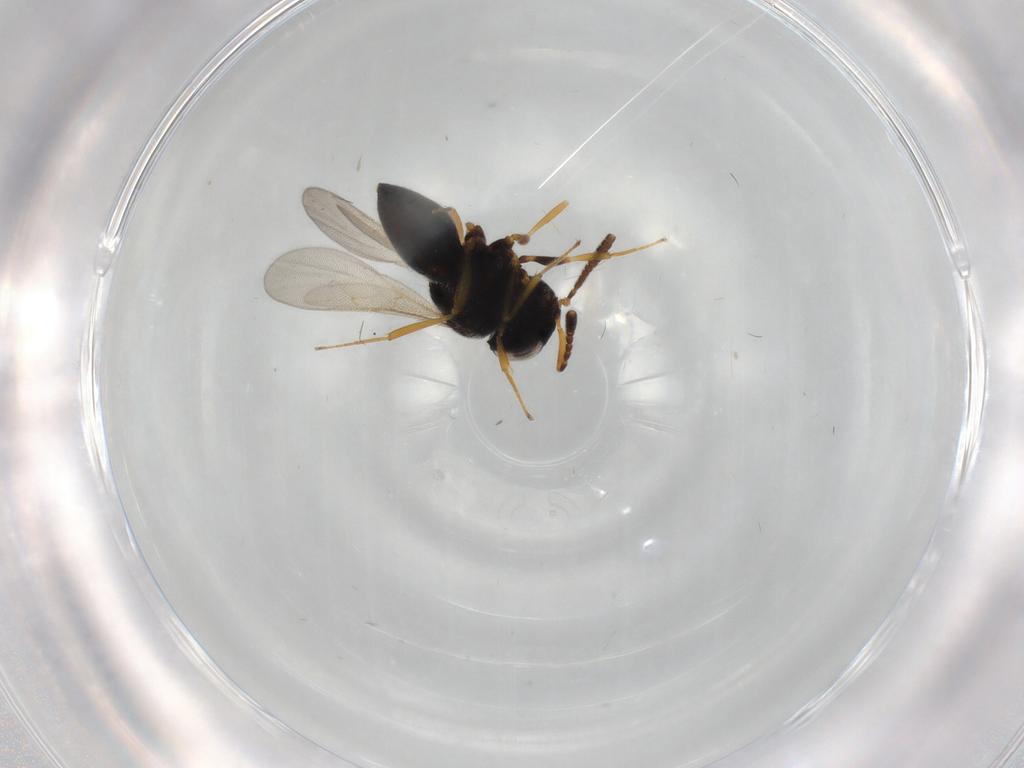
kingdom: Animalia
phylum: Arthropoda
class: Insecta
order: Hymenoptera
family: Scelionidae
